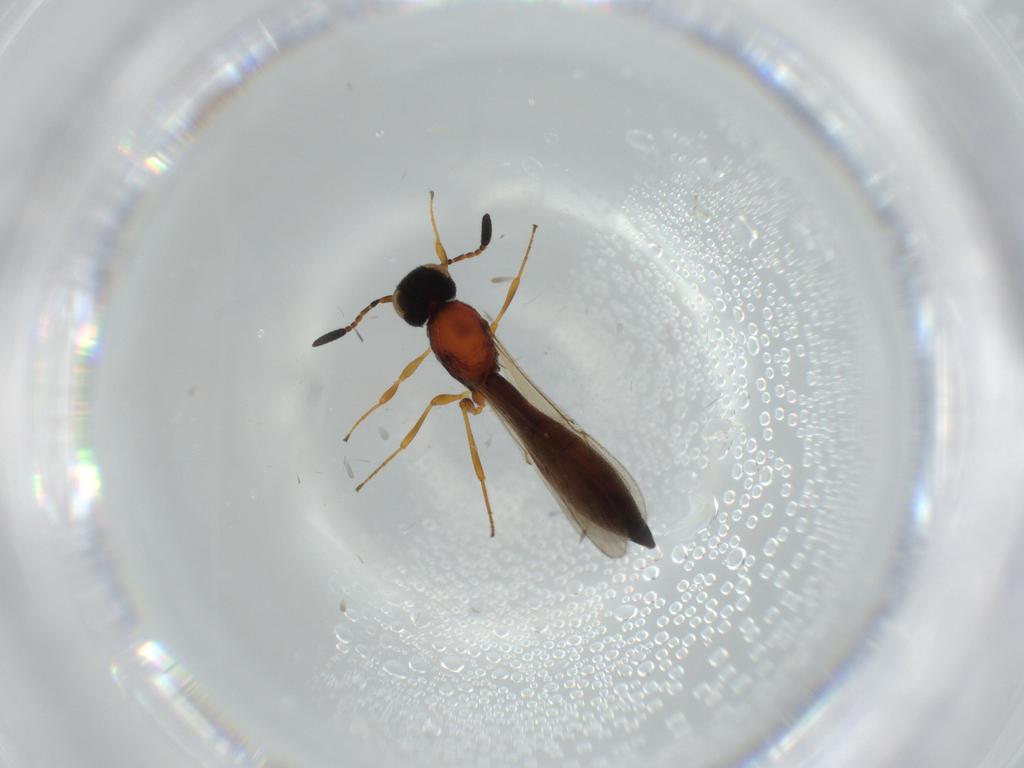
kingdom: Animalia
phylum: Arthropoda
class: Insecta
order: Hymenoptera
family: Scelionidae
